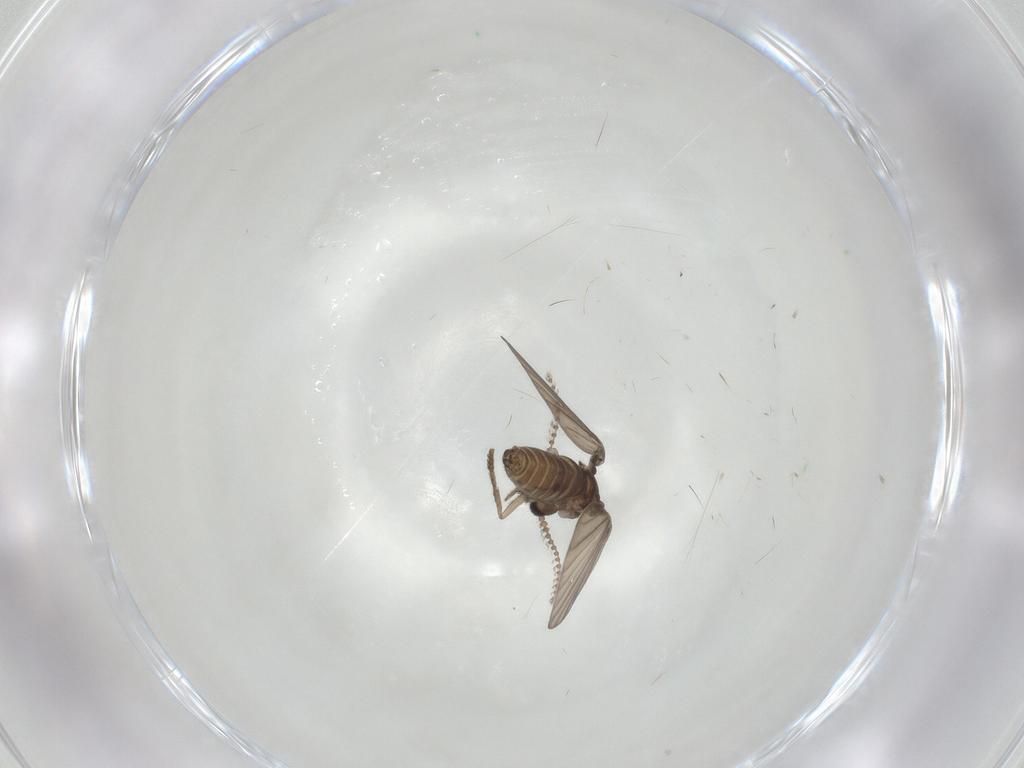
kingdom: Animalia
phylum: Arthropoda
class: Insecta
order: Diptera
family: Psychodidae
